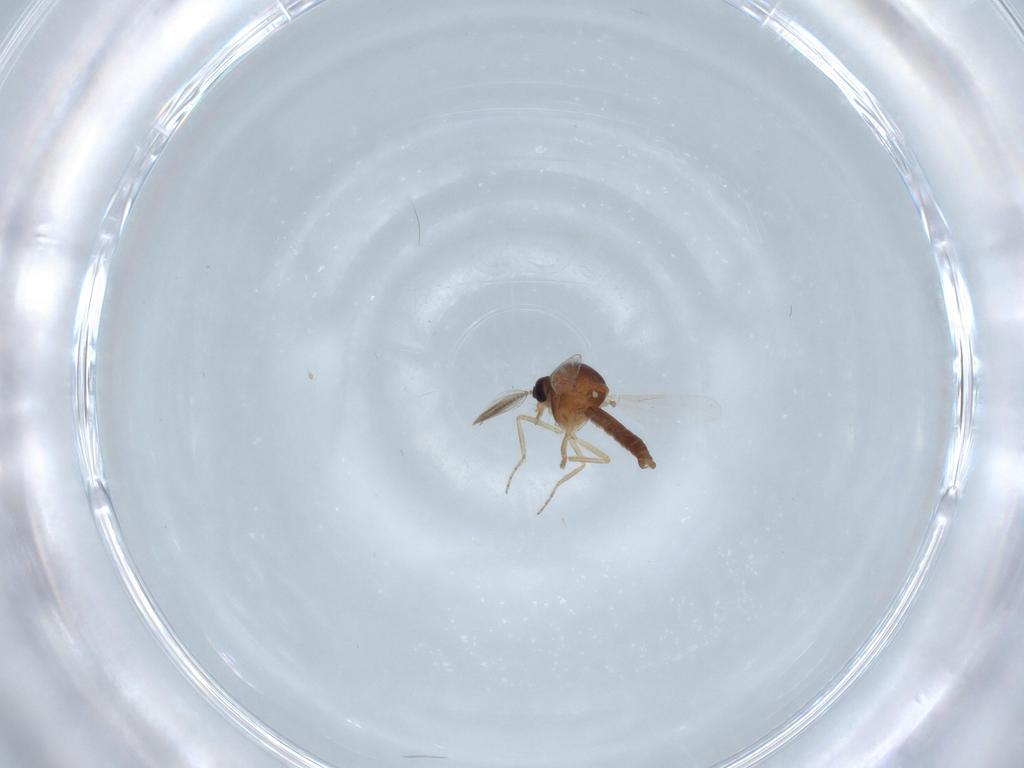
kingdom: Animalia
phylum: Arthropoda
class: Insecta
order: Diptera
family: Ceratopogonidae
